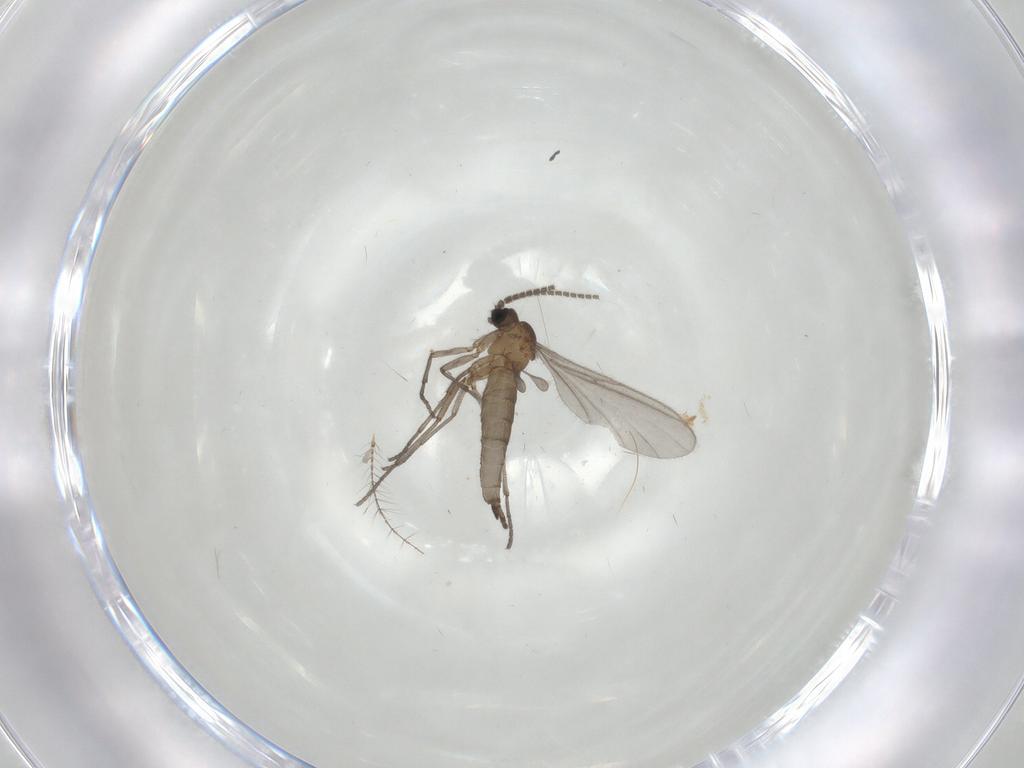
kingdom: Animalia
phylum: Arthropoda
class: Insecta
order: Diptera
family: Sciaridae
